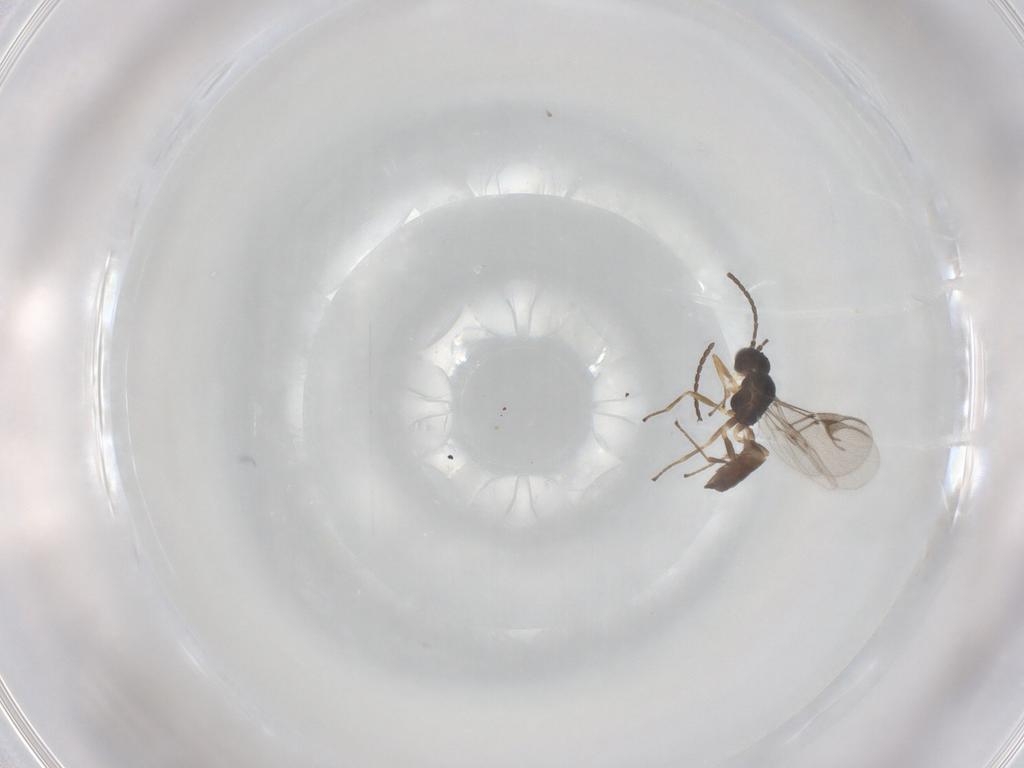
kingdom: Animalia
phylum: Arthropoda
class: Insecta
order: Hymenoptera
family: Braconidae
